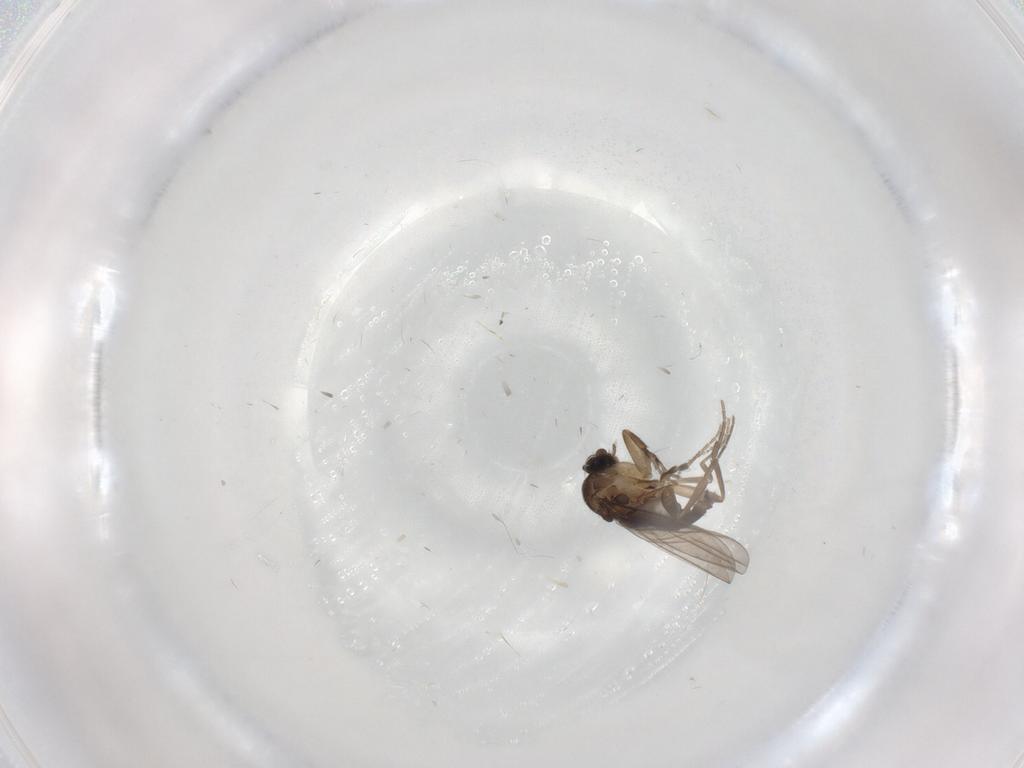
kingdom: Animalia
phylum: Arthropoda
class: Insecta
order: Diptera
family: Phoridae
